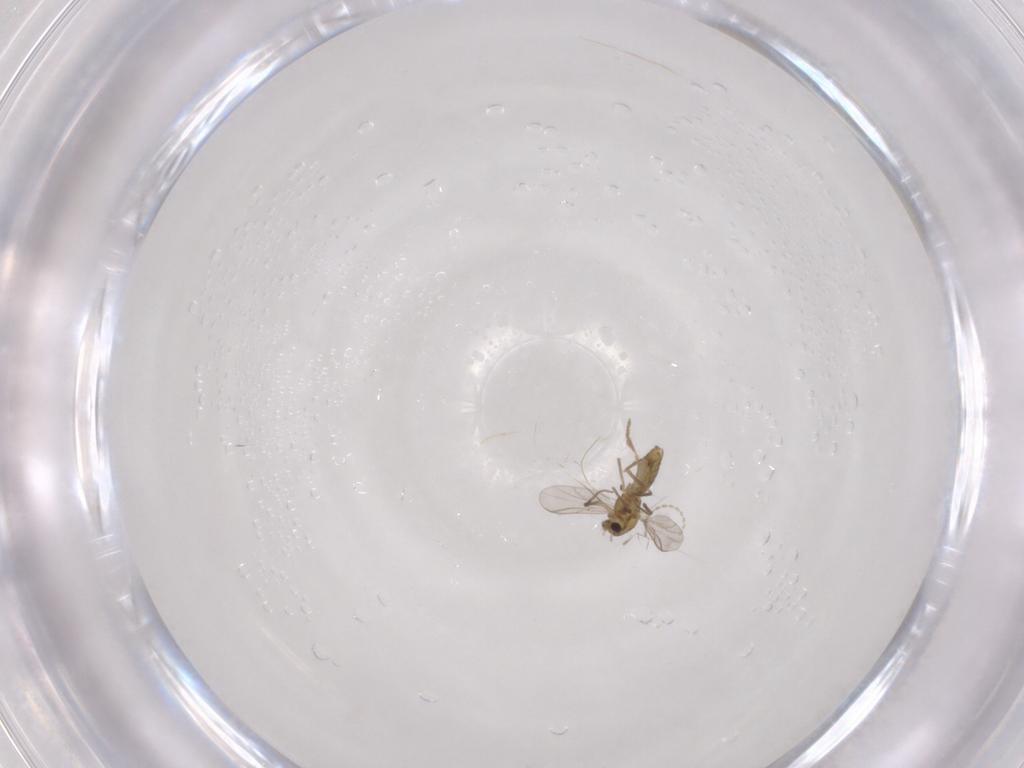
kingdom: Animalia
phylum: Arthropoda
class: Insecta
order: Diptera
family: Chironomidae
